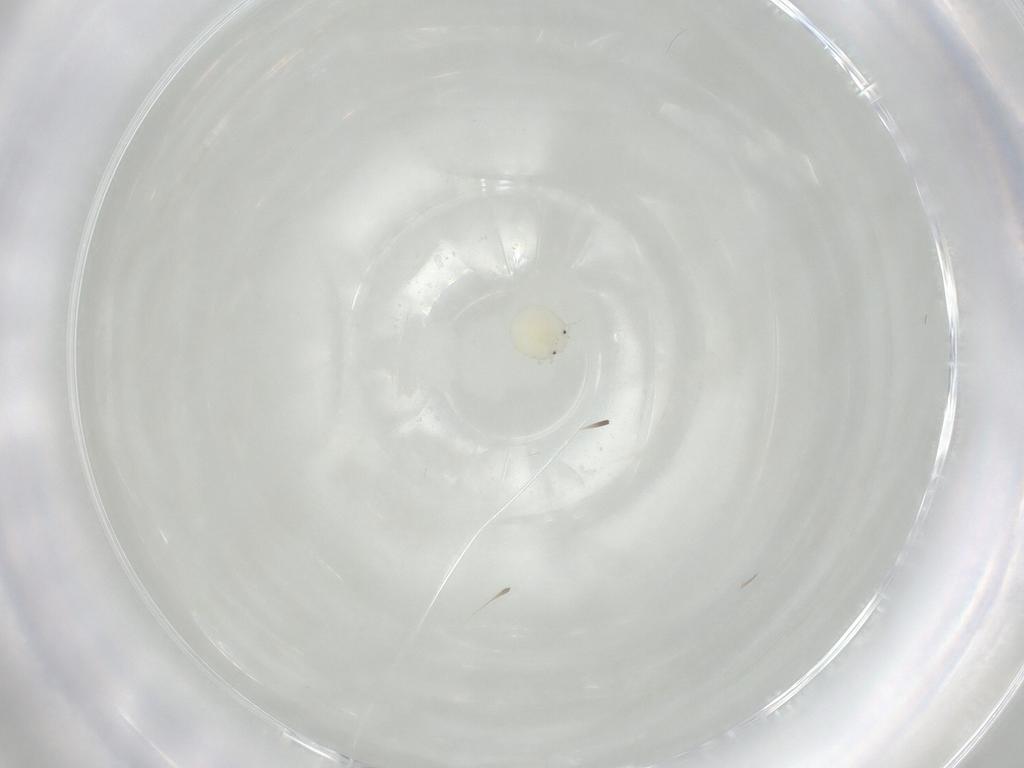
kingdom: Animalia
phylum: Arthropoda
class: Arachnida
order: Trombidiformes
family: Arrenuridae
